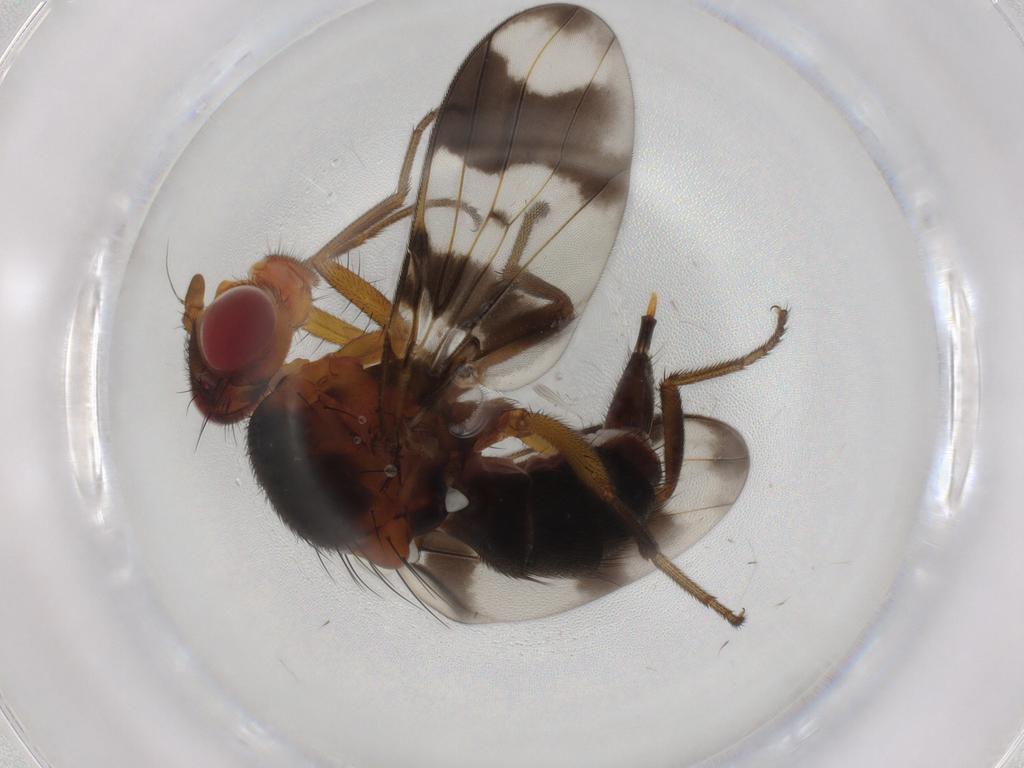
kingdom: Animalia
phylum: Arthropoda
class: Insecta
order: Diptera
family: Richardiidae
